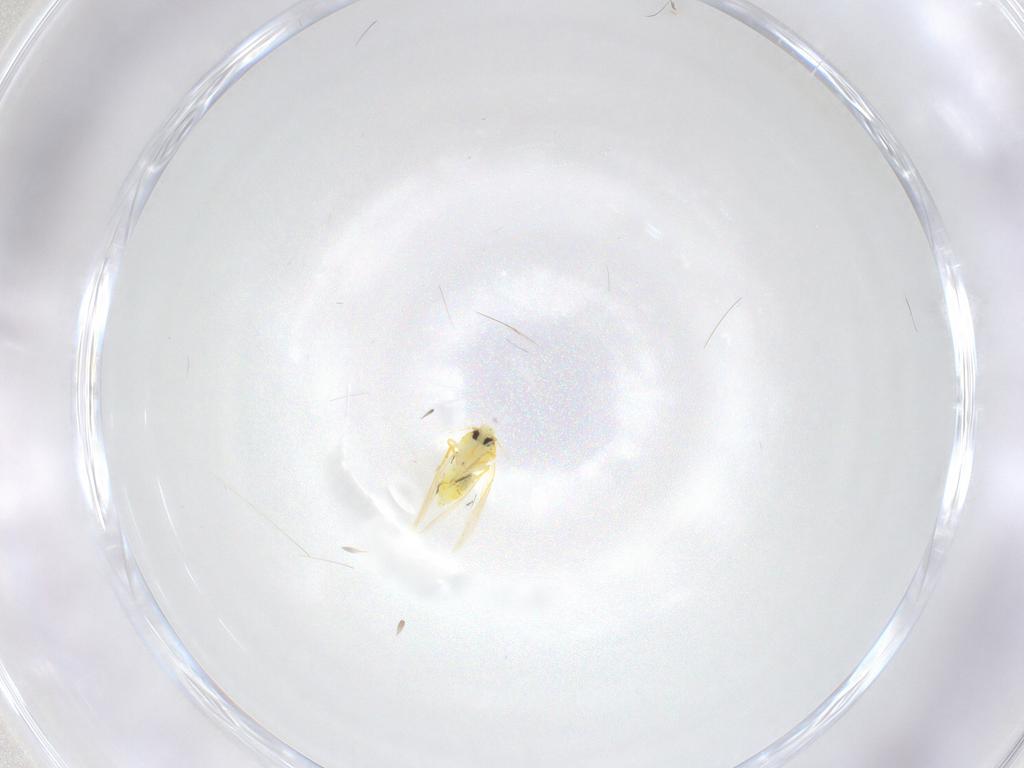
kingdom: Animalia
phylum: Arthropoda
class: Insecta
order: Hemiptera
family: Aleyrodidae
